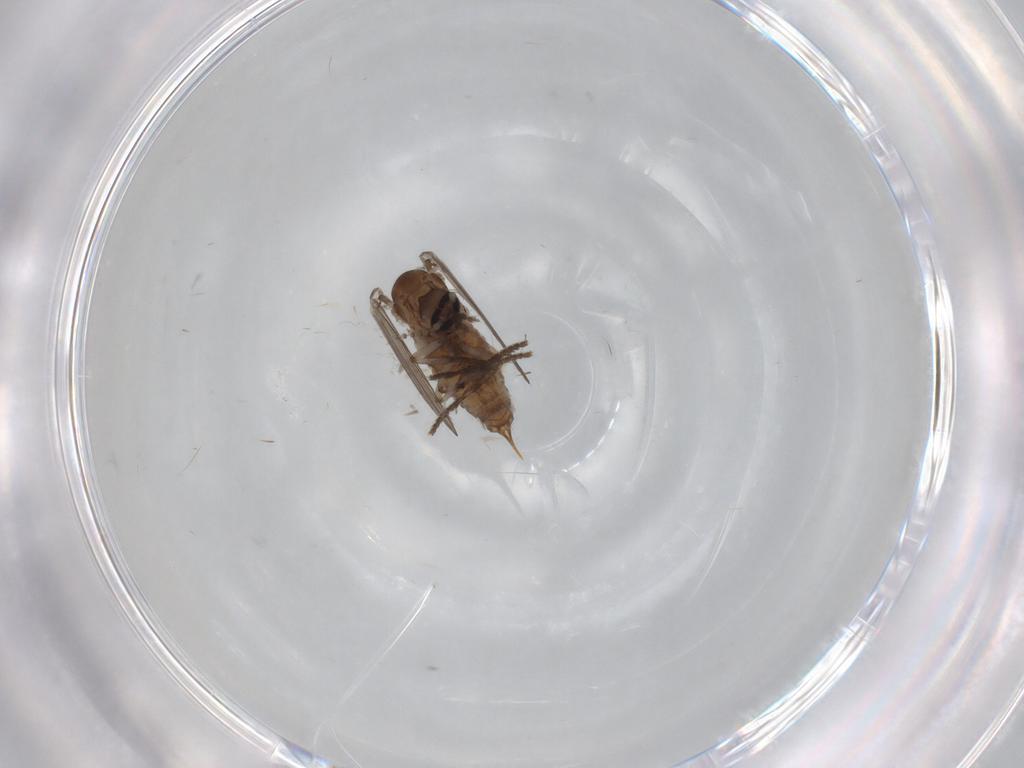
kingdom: Animalia
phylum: Arthropoda
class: Insecta
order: Diptera
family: Psychodidae
